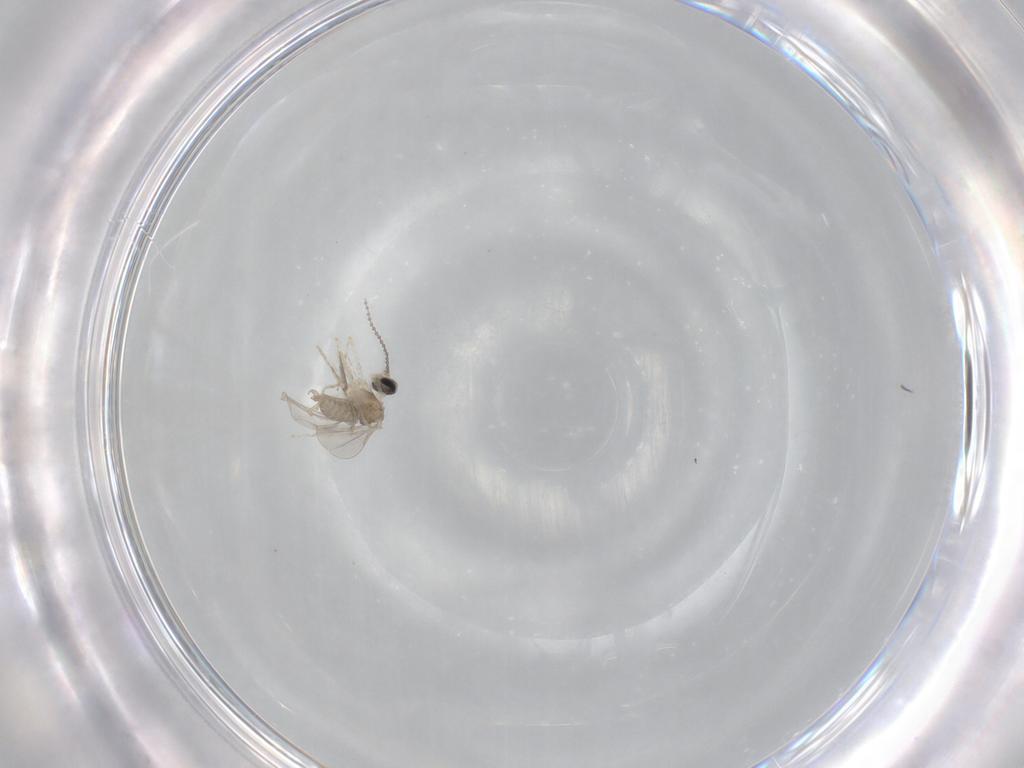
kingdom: Animalia
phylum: Arthropoda
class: Insecta
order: Diptera
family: Cecidomyiidae
